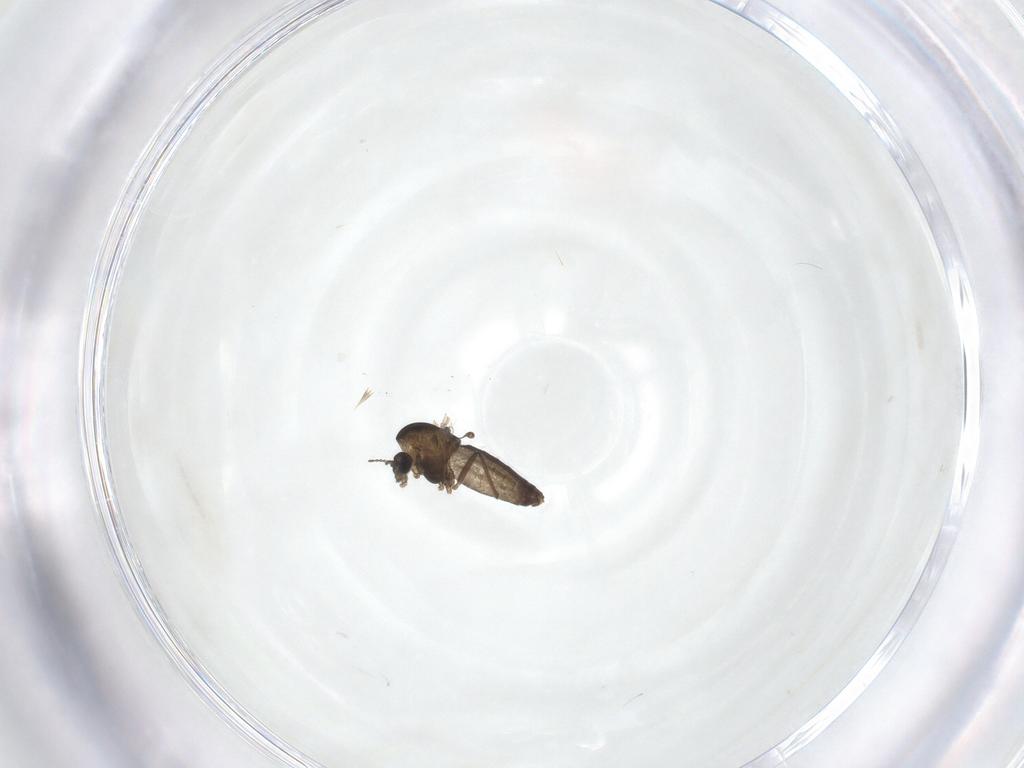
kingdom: Animalia
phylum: Arthropoda
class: Insecta
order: Diptera
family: Chironomidae
